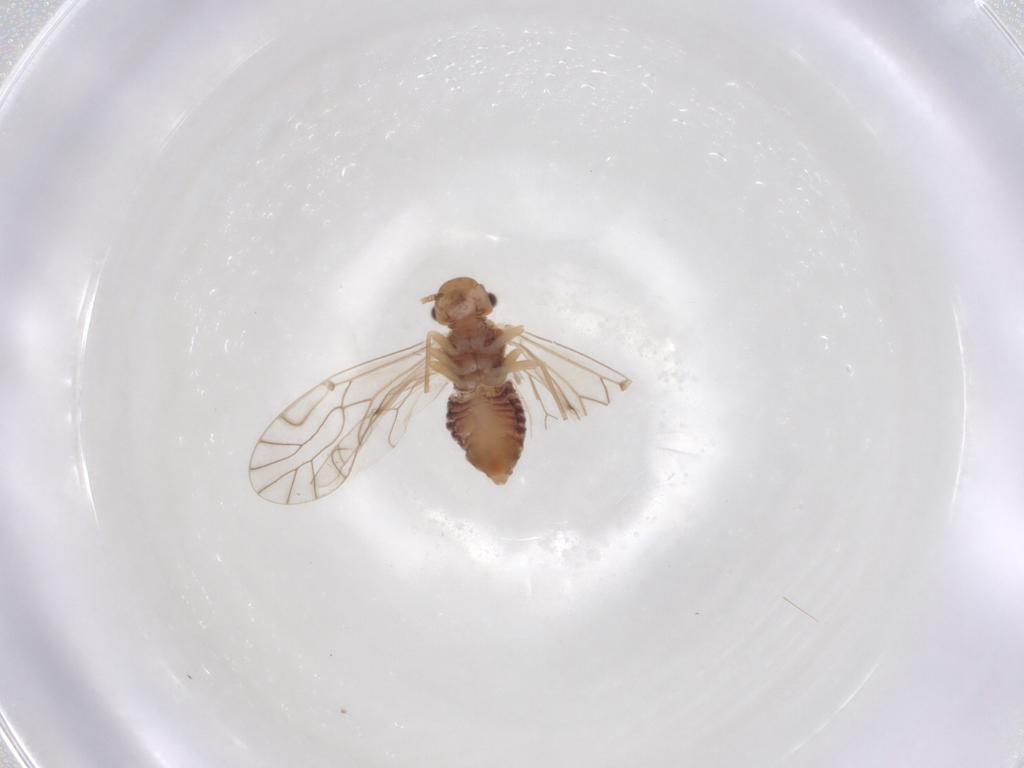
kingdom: Animalia
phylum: Arthropoda
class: Insecta
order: Psocodea
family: Lachesillidae
